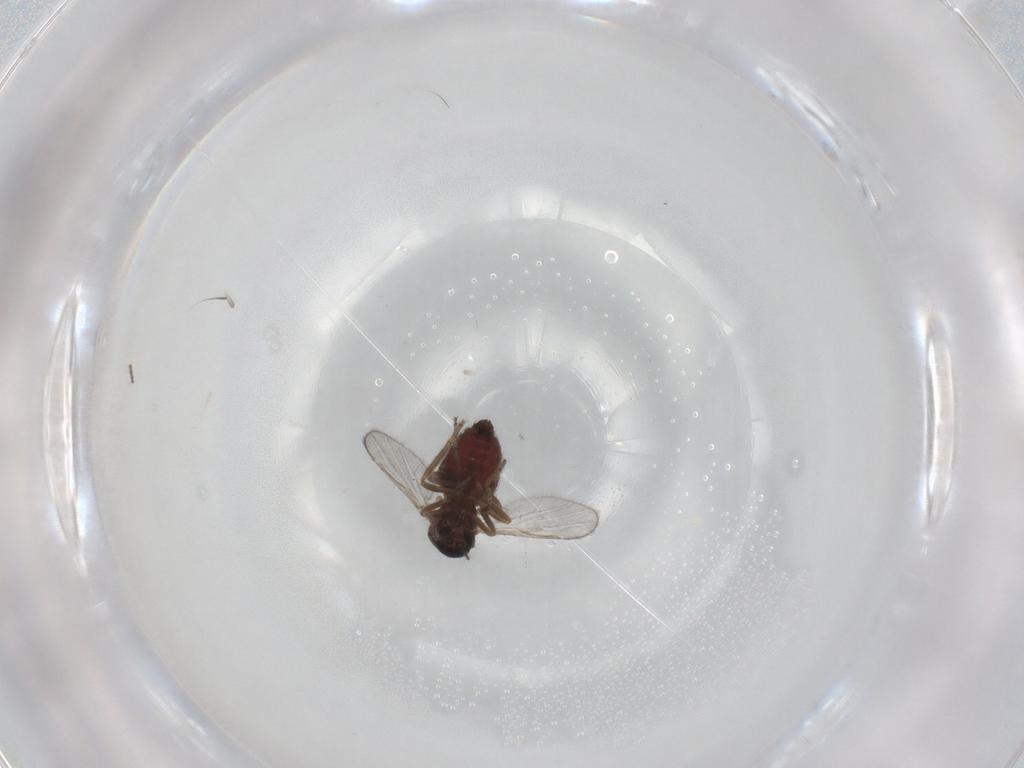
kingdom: Animalia
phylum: Arthropoda
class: Insecta
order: Diptera
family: Ceratopogonidae
